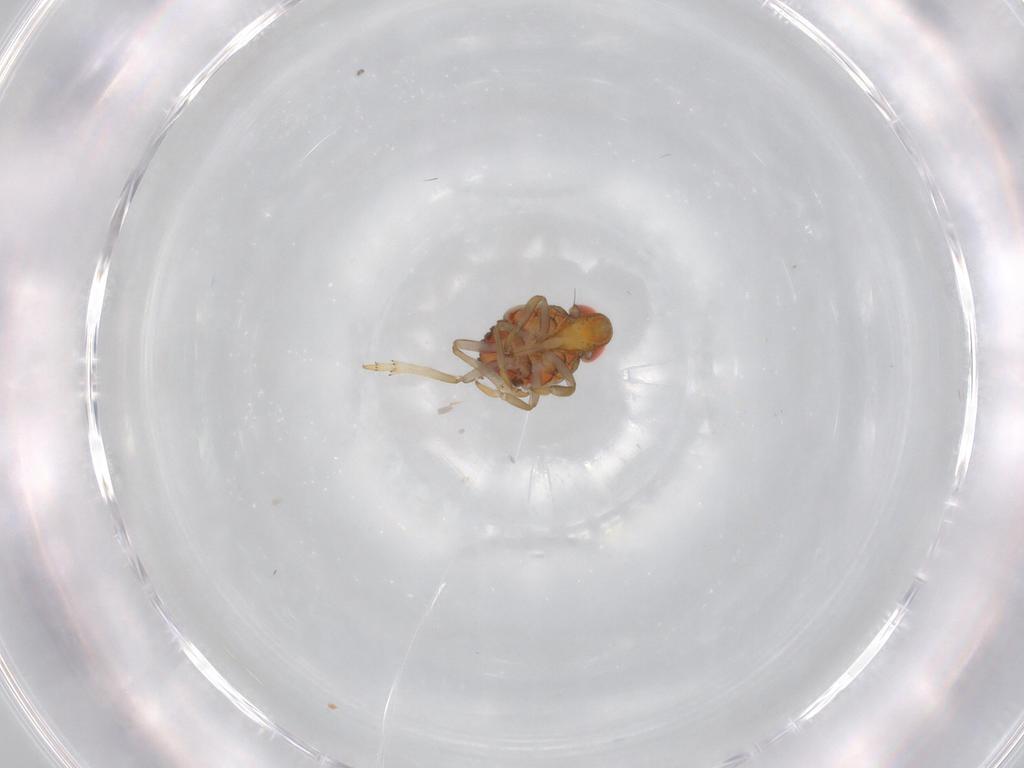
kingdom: Animalia
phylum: Arthropoda
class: Insecta
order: Hemiptera
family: Issidae
